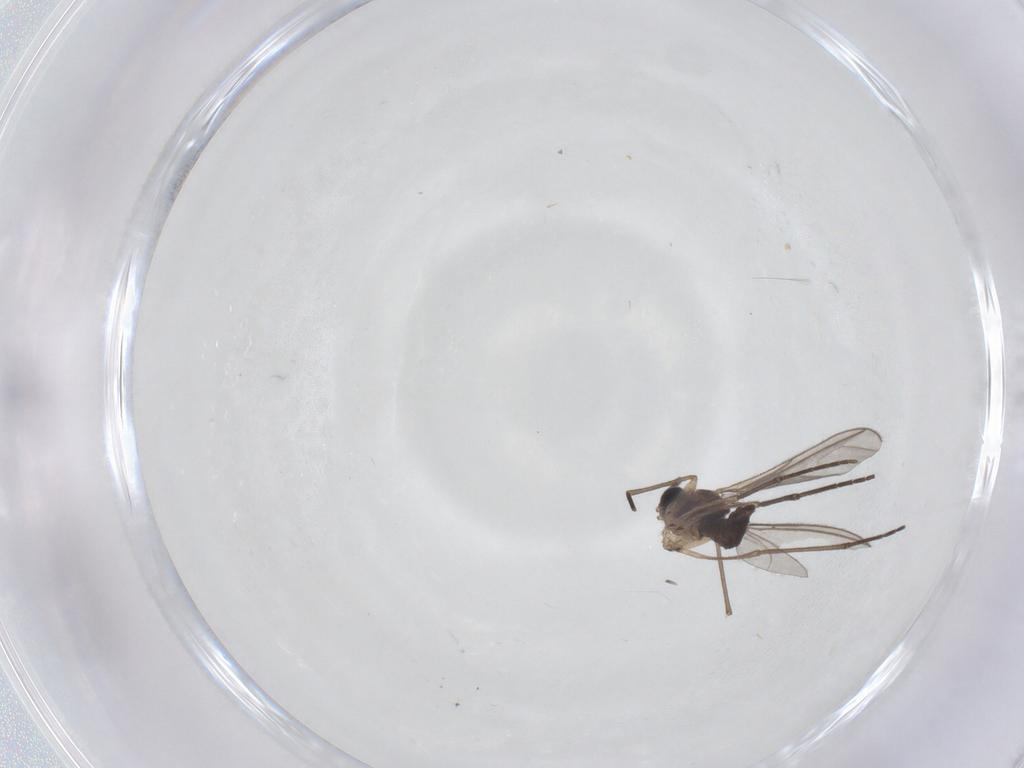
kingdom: Animalia
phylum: Arthropoda
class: Insecta
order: Diptera
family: Sciaridae
